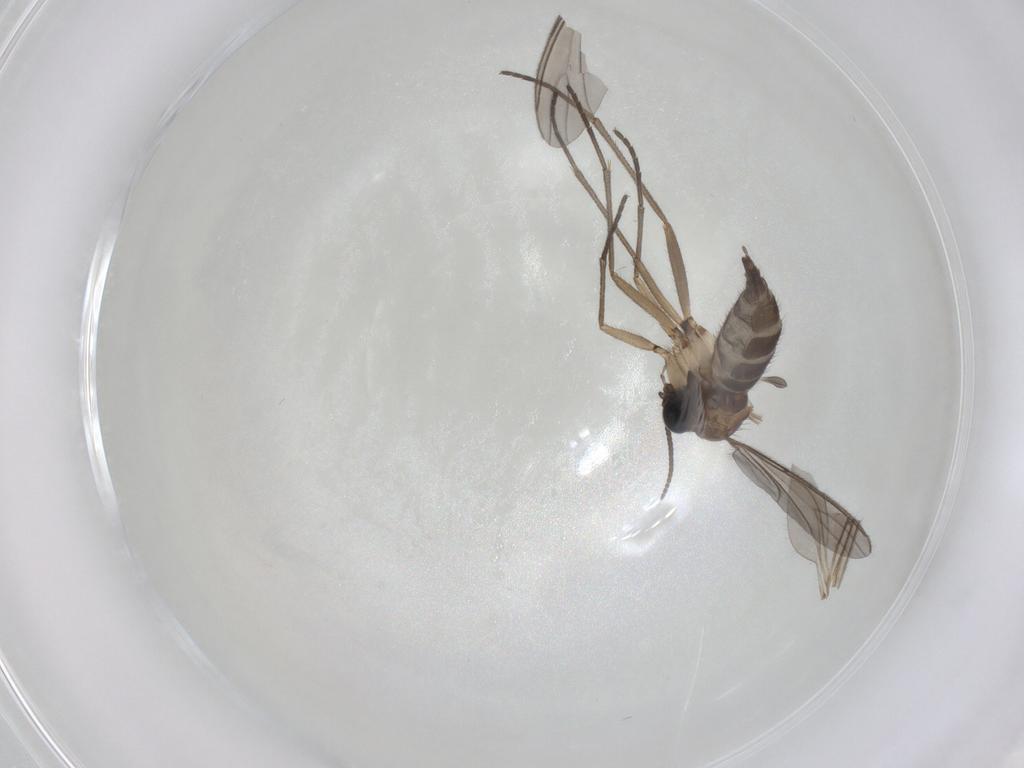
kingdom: Animalia
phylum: Arthropoda
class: Insecta
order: Diptera
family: Sciaridae
